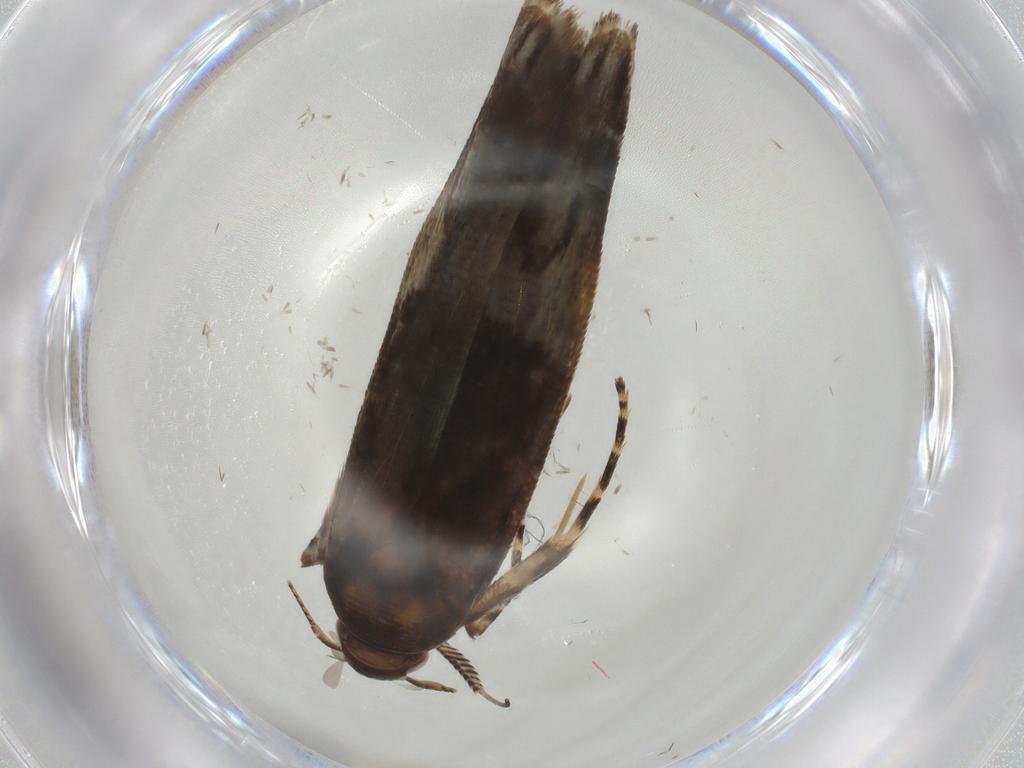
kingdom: Animalia
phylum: Arthropoda
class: Insecta
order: Lepidoptera
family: Gelechiidae
